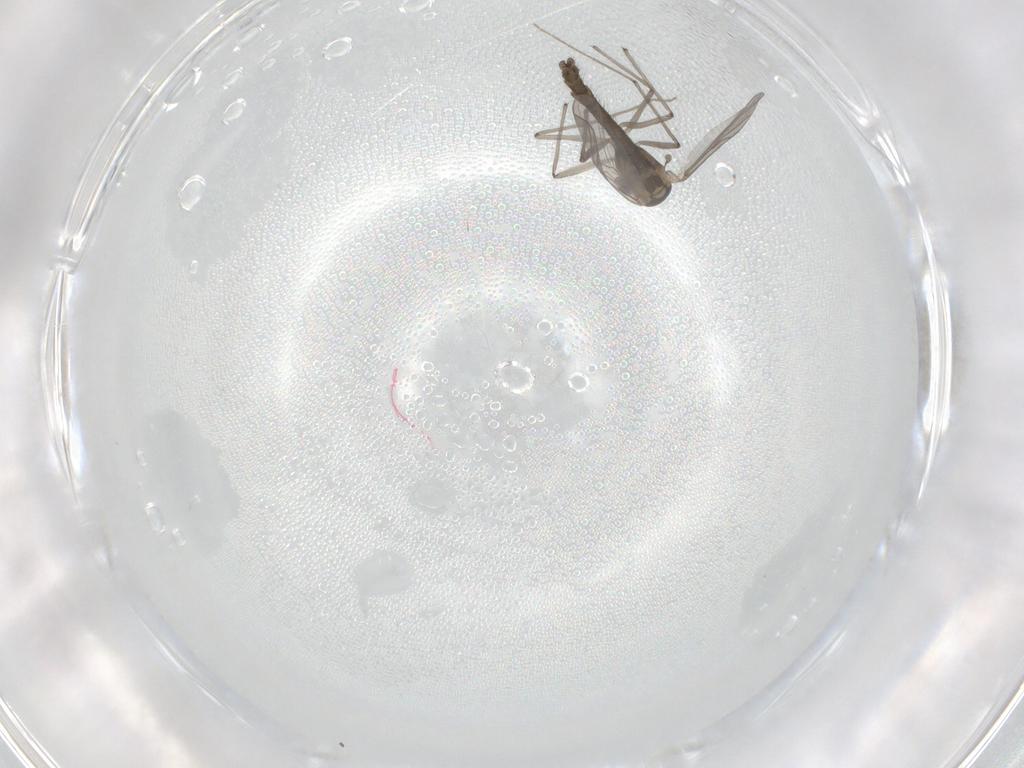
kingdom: Animalia
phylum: Arthropoda
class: Insecta
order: Diptera
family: Chironomidae
